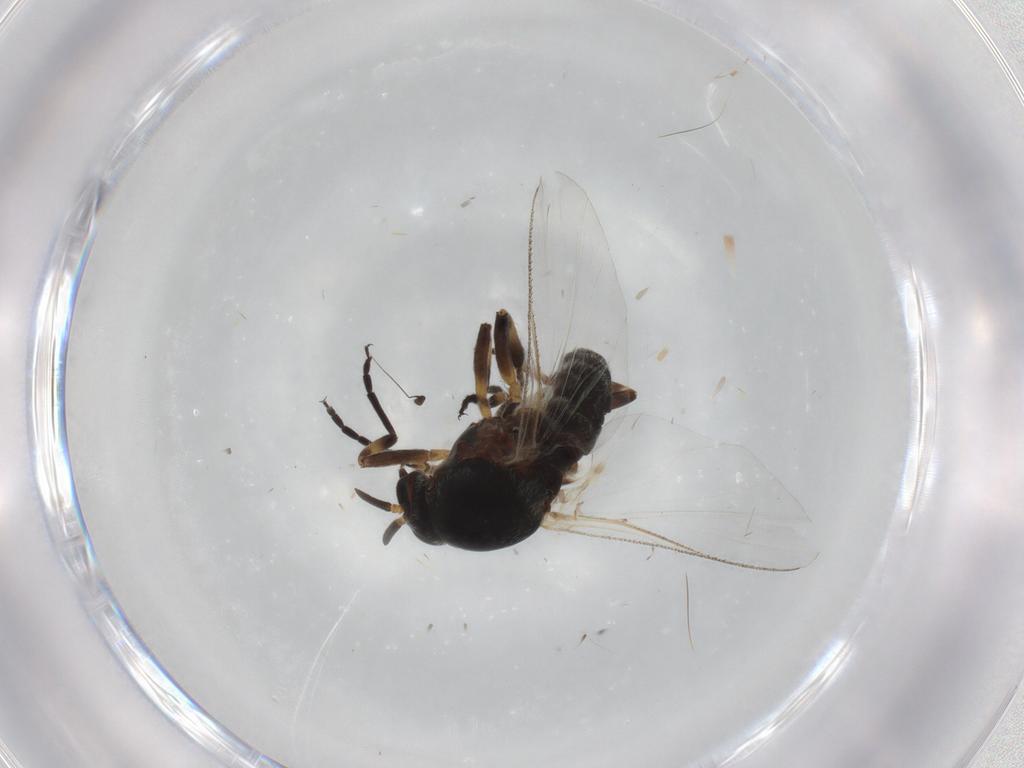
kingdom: Animalia
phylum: Arthropoda
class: Insecta
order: Diptera
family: Psychodidae
